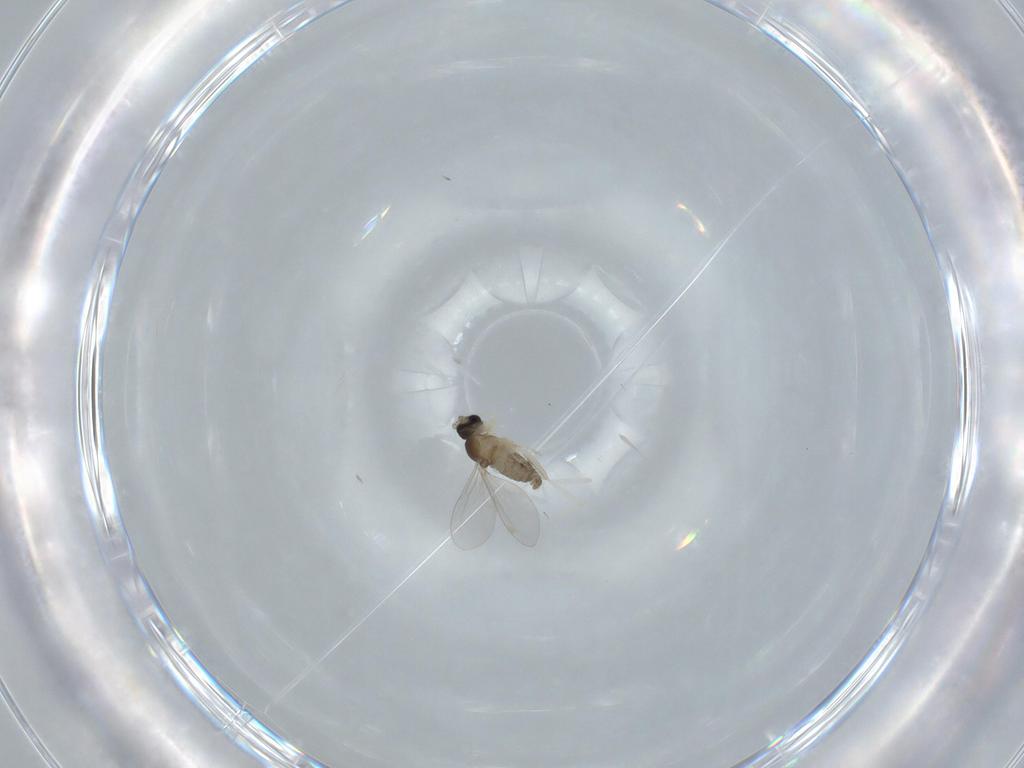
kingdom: Animalia
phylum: Arthropoda
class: Insecta
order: Diptera
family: Cecidomyiidae
